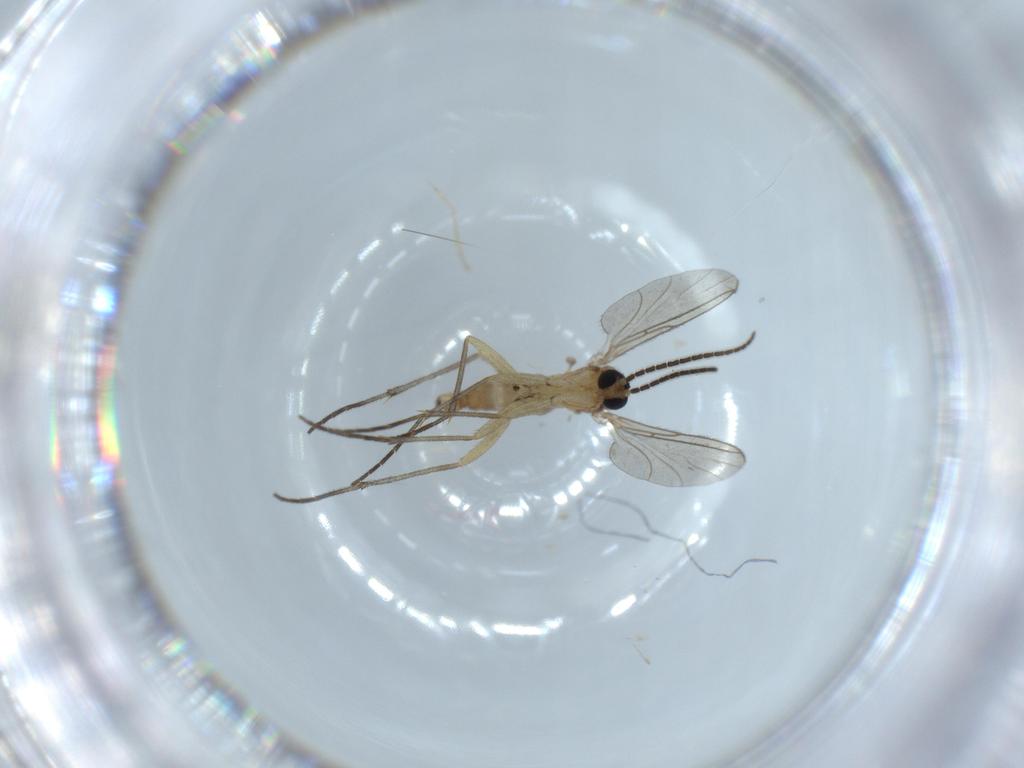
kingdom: Animalia
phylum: Arthropoda
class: Insecta
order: Diptera
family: Chironomidae
